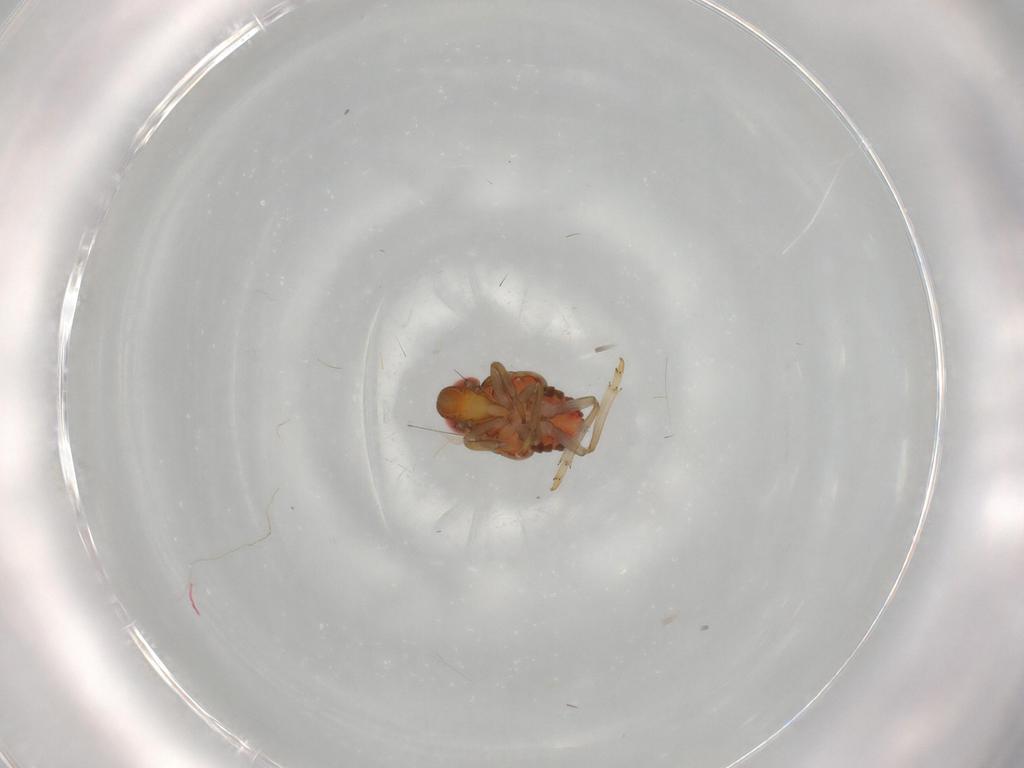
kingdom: Animalia
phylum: Arthropoda
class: Insecta
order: Hemiptera
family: Issidae
